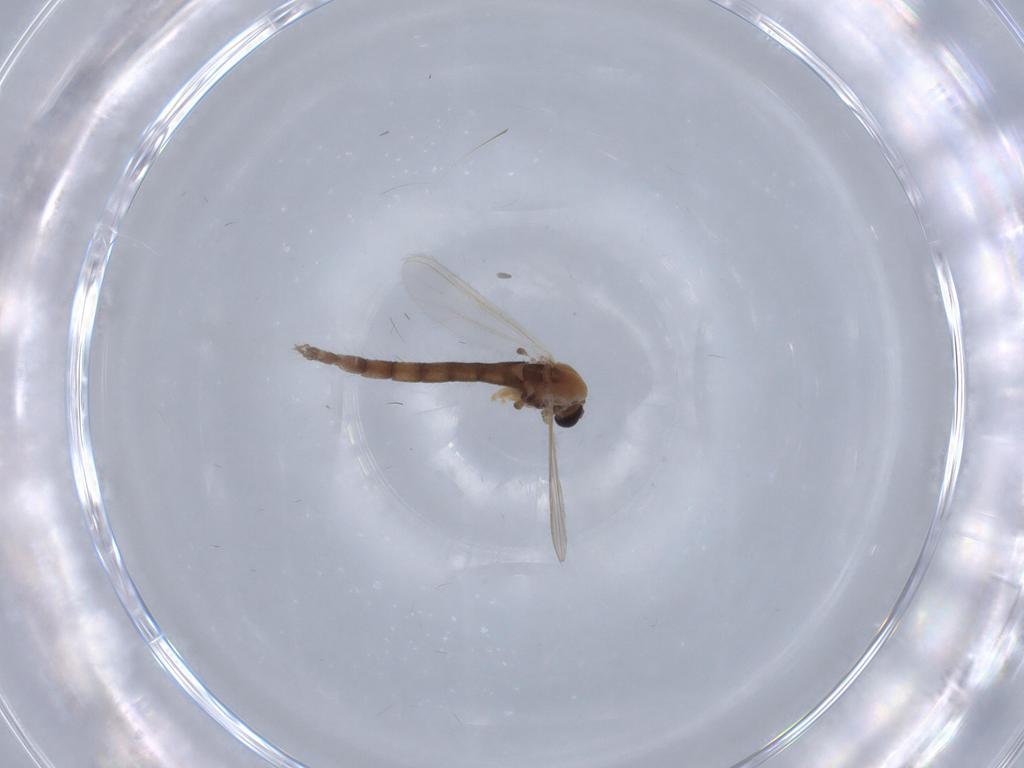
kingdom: Animalia
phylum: Arthropoda
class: Insecta
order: Diptera
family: Chironomidae
